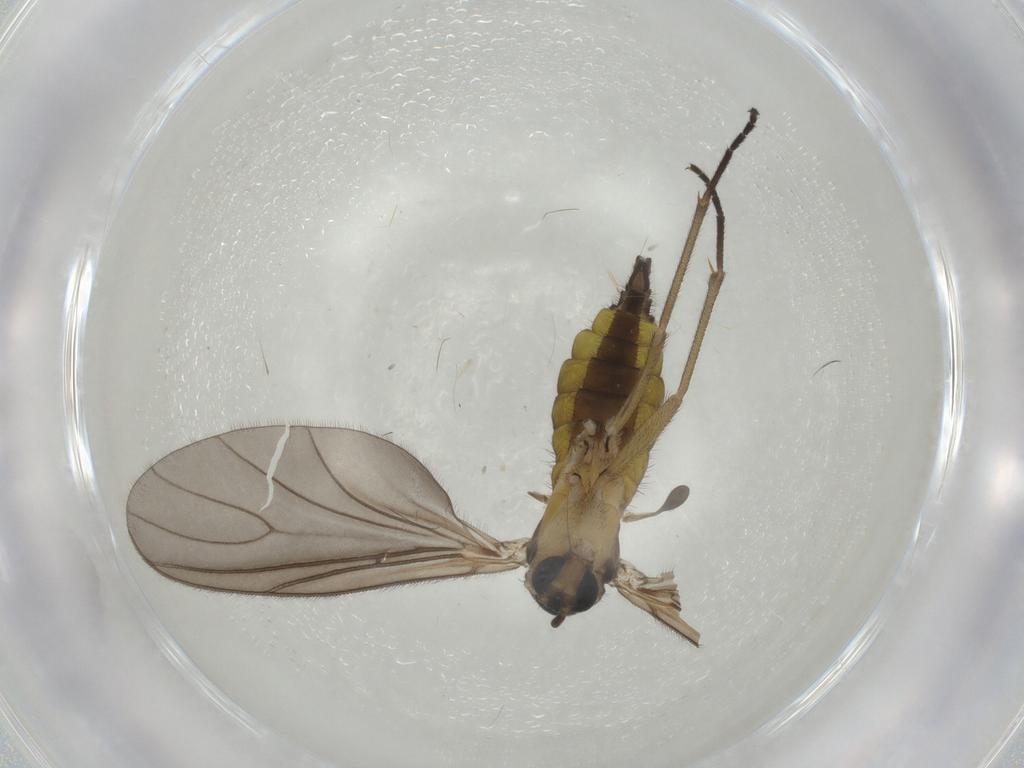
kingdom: Animalia
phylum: Arthropoda
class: Insecta
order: Diptera
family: Sciaridae
